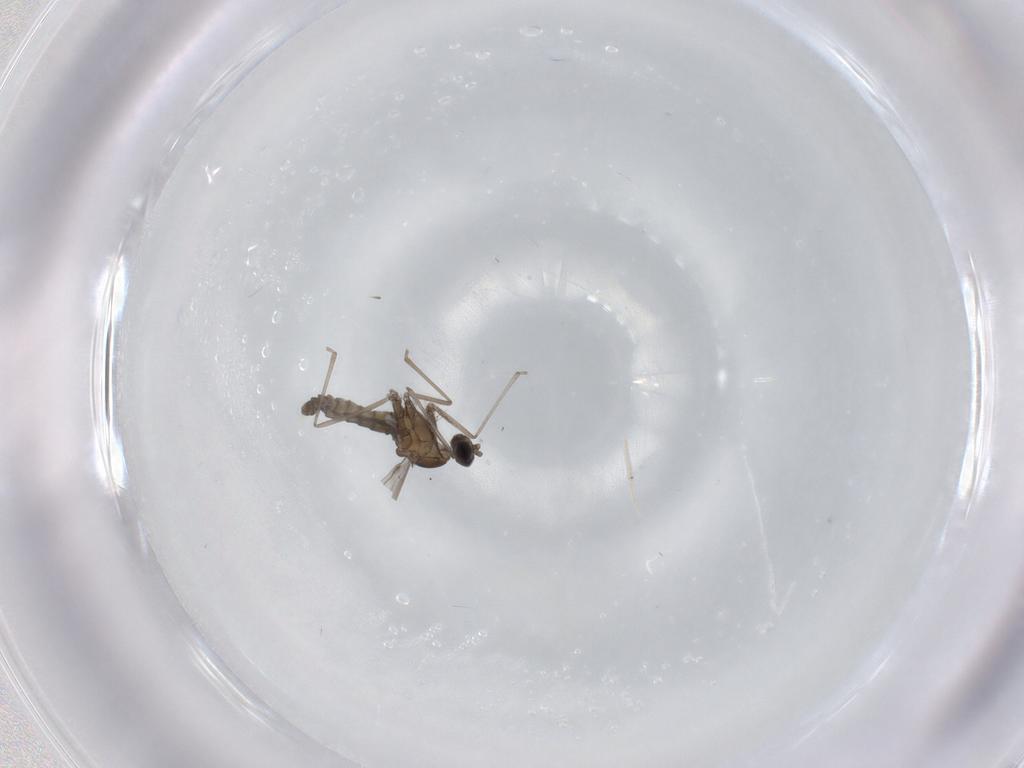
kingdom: Animalia
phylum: Arthropoda
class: Insecta
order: Diptera
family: Cecidomyiidae
